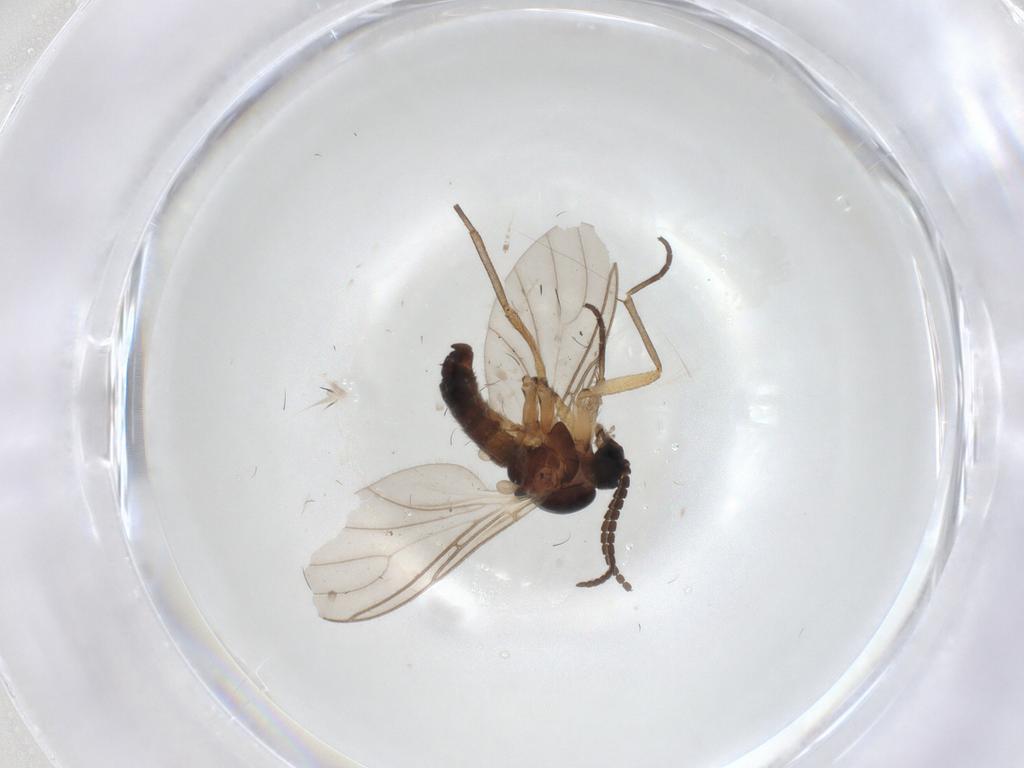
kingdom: Animalia
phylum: Arthropoda
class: Insecta
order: Diptera
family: Sciaridae
